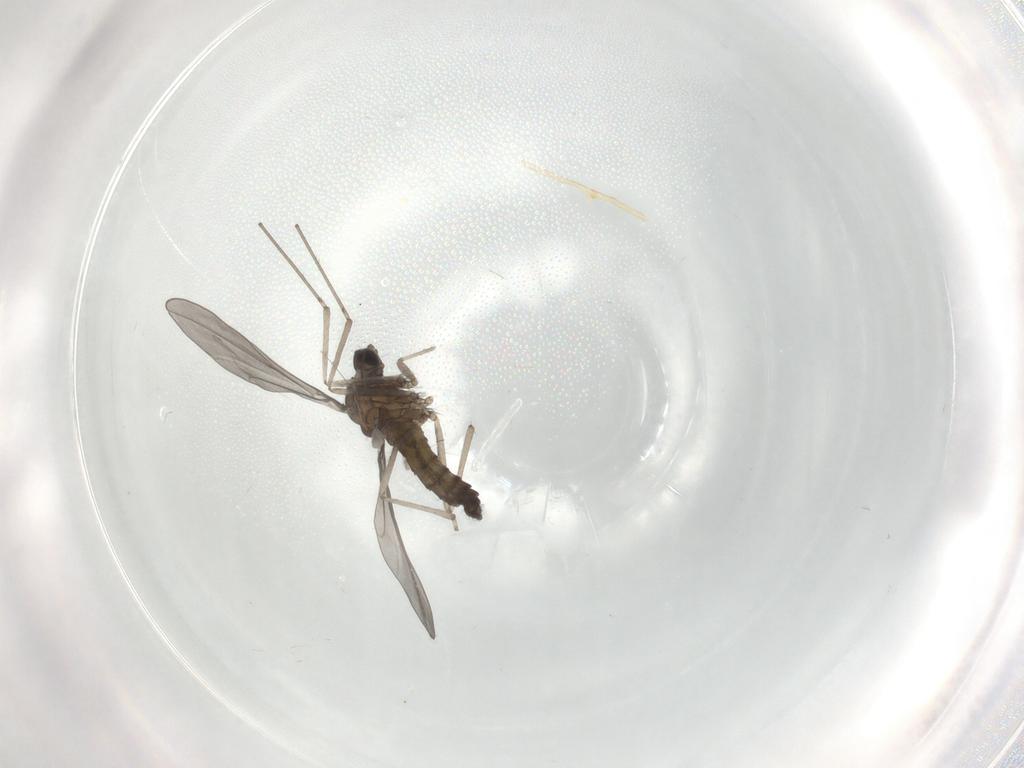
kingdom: Animalia
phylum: Arthropoda
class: Insecta
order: Diptera
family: Cecidomyiidae
